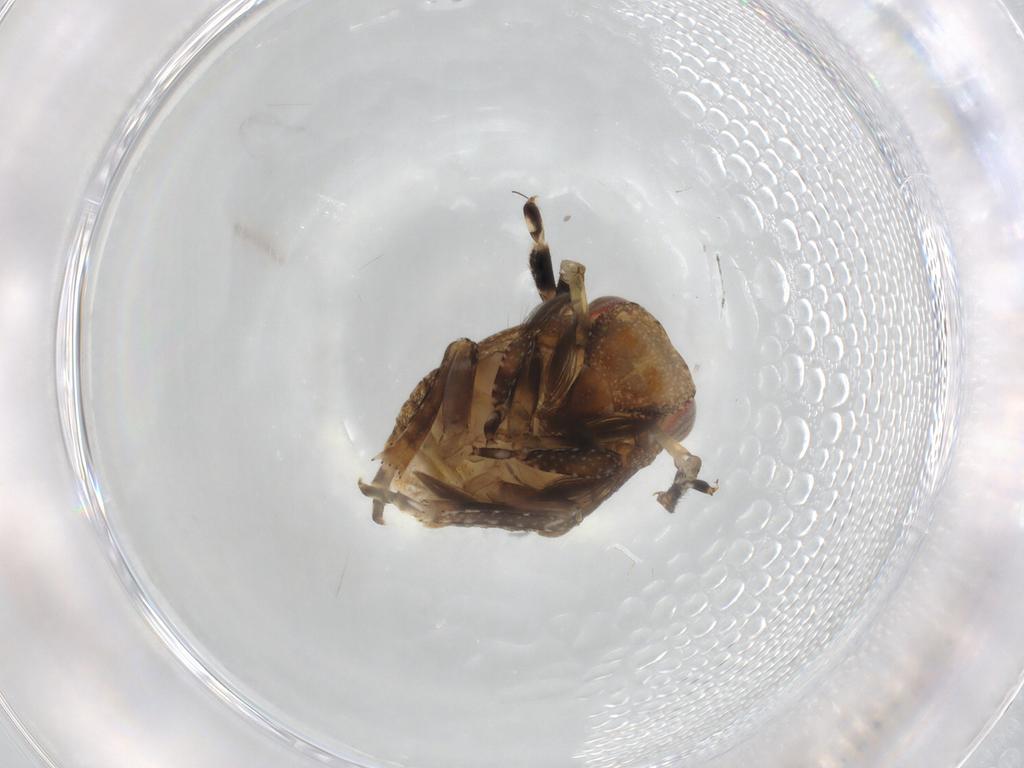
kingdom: Animalia
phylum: Arthropoda
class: Insecta
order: Hemiptera
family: Fulgoroidea_incertae_sedis
